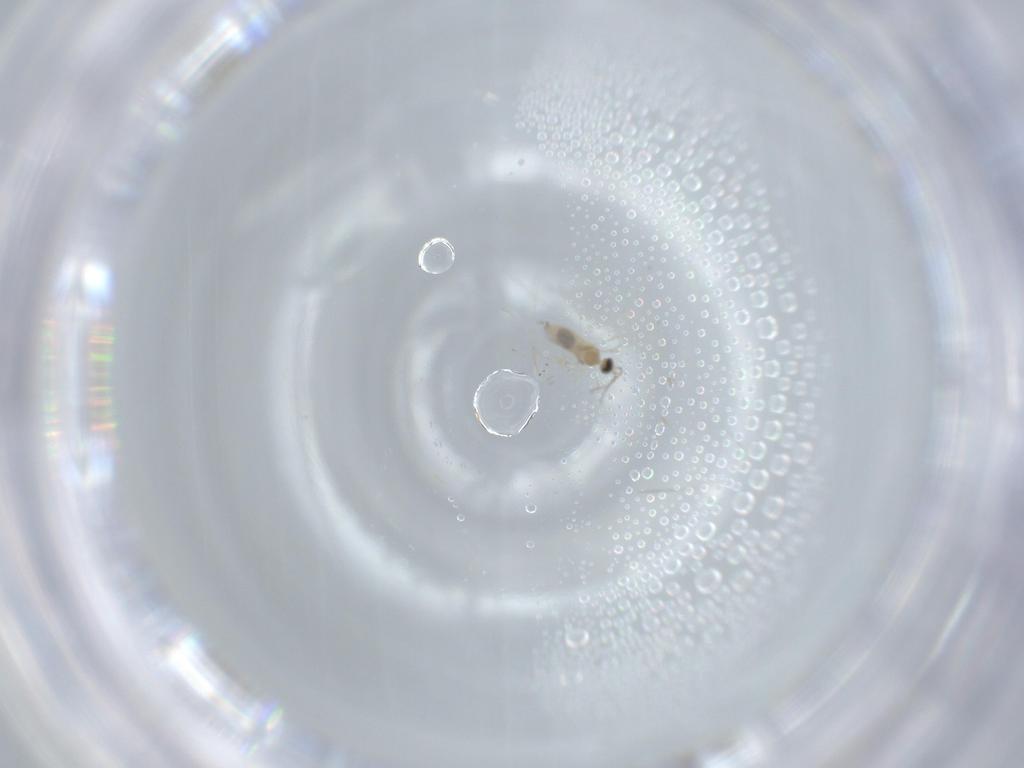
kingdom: Animalia
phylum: Arthropoda
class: Insecta
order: Diptera
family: Cecidomyiidae
